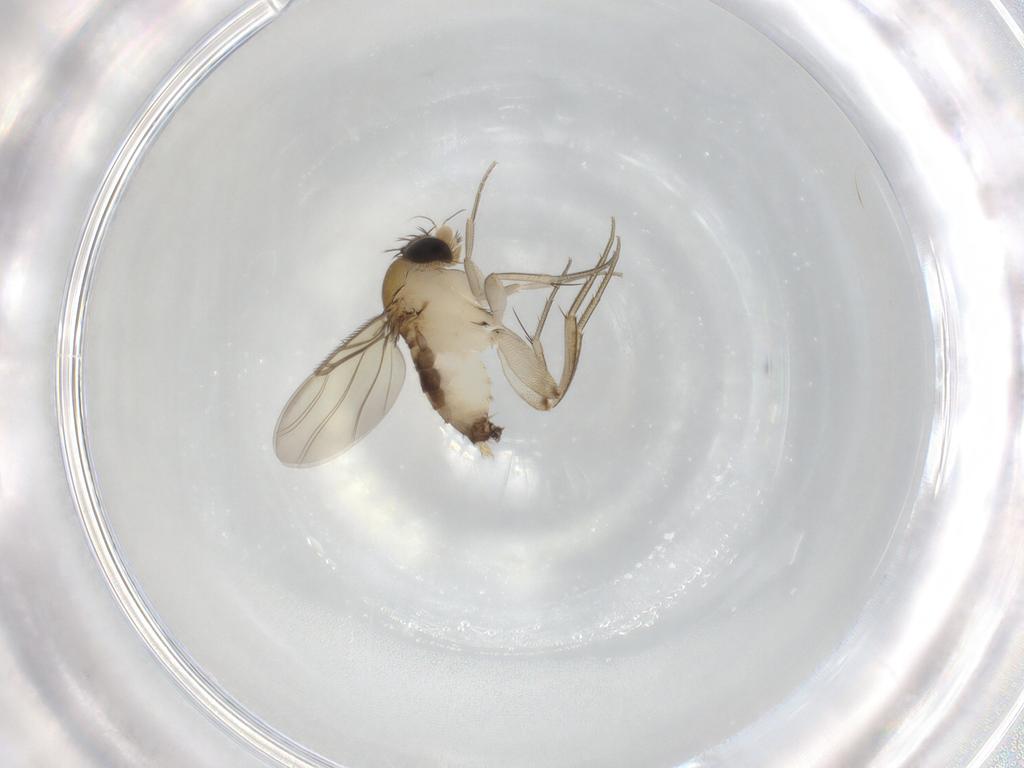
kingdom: Animalia
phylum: Arthropoda
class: Insecta
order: Diptera
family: Phoridae
